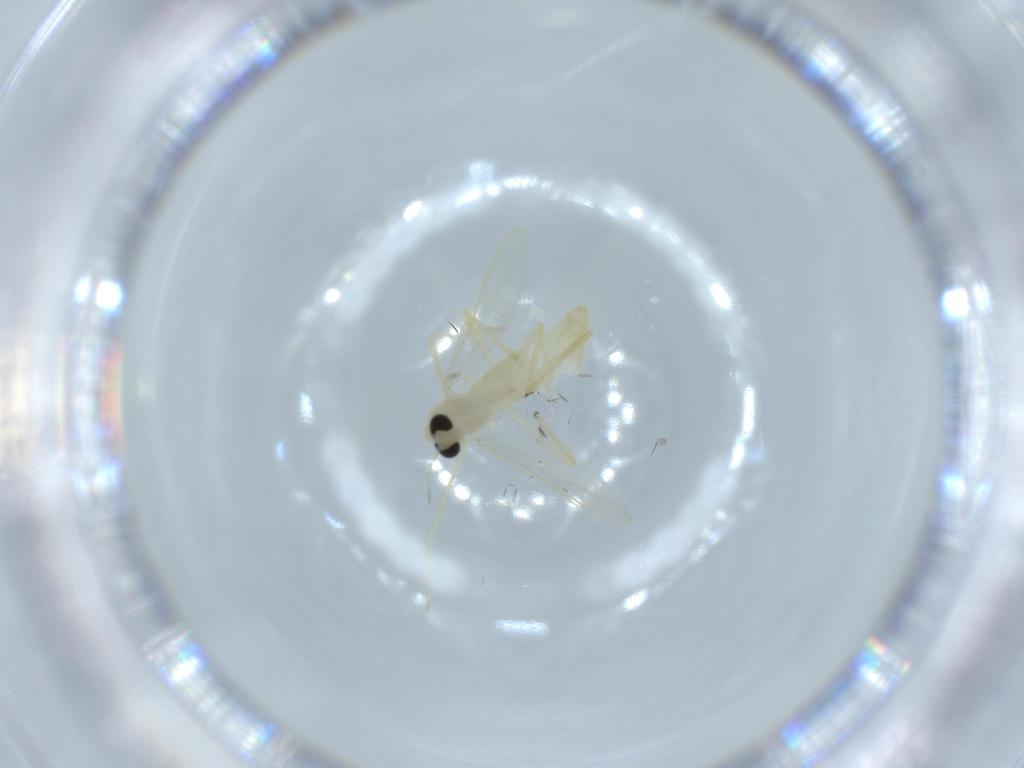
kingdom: Animalia
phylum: Arthropoda
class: Insecta
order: Diptera
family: Chironomidae
